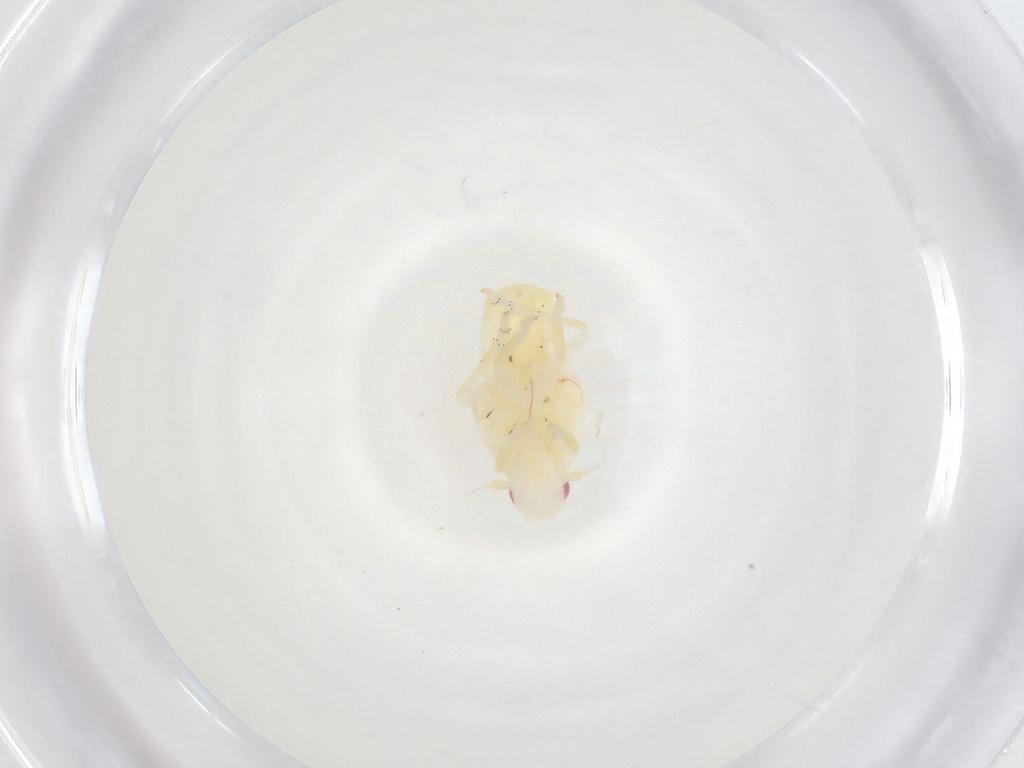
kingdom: Animalia
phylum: Arthropoda
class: Insecta
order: Hemiptera
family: Flatidae
